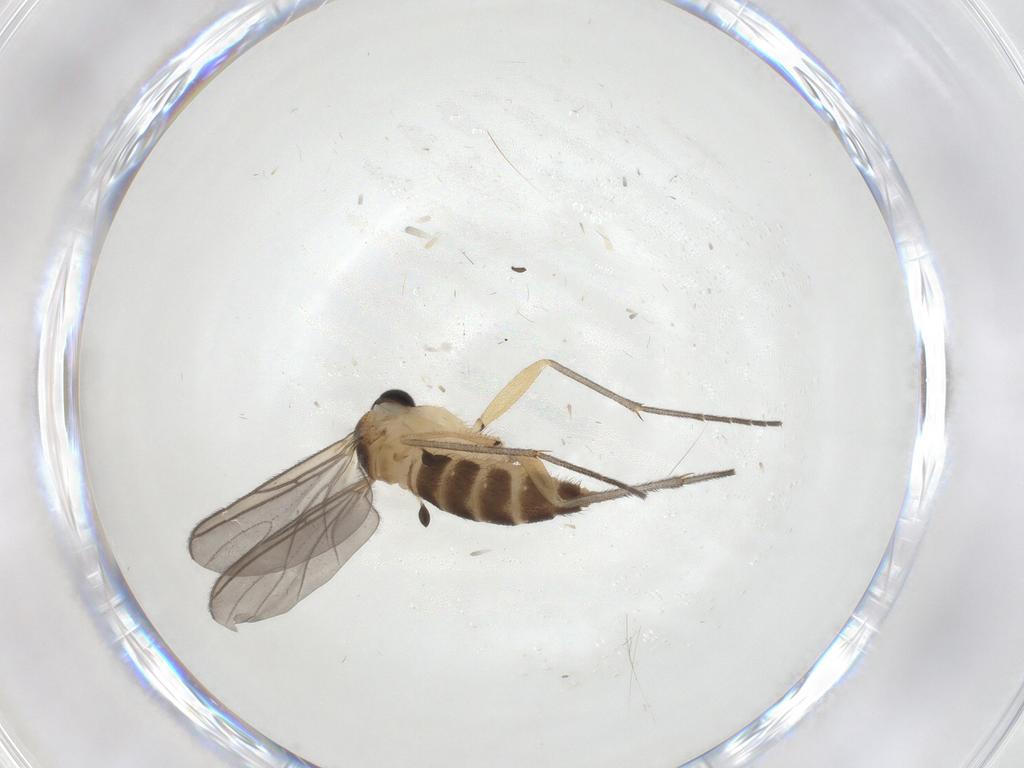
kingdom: Animalia
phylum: Arthropoda
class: Insecta
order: Diptera
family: Sciaridae
